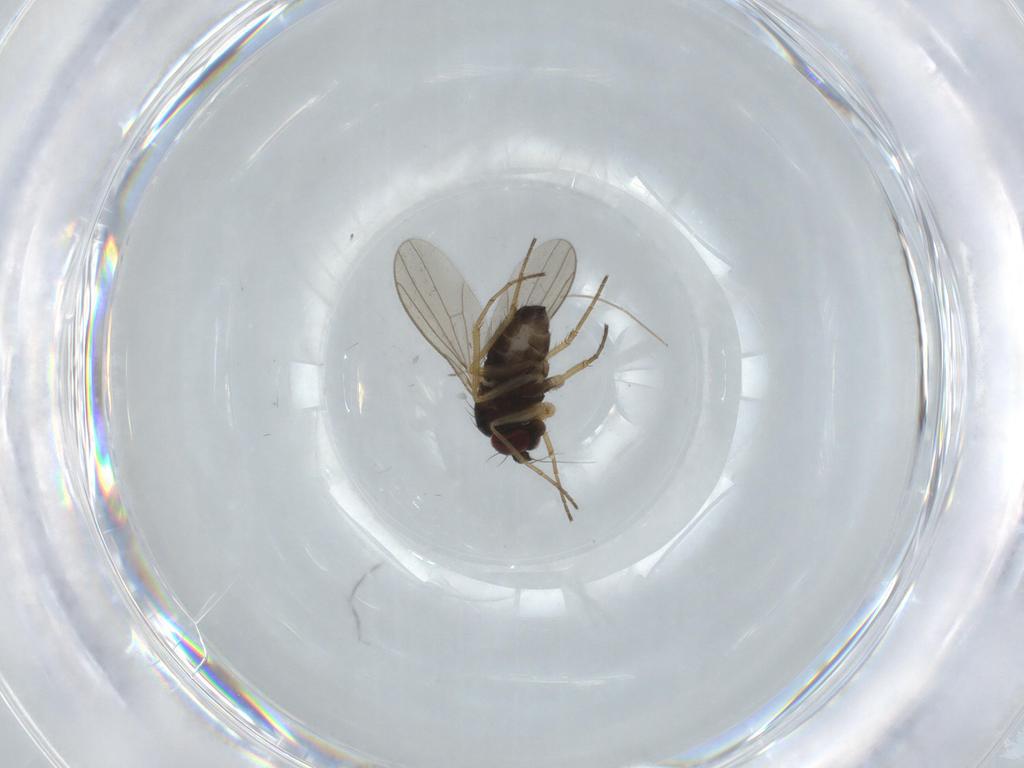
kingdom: Animalia
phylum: Arthropoda
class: Insecta
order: Diptera
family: Dolichopodidae
